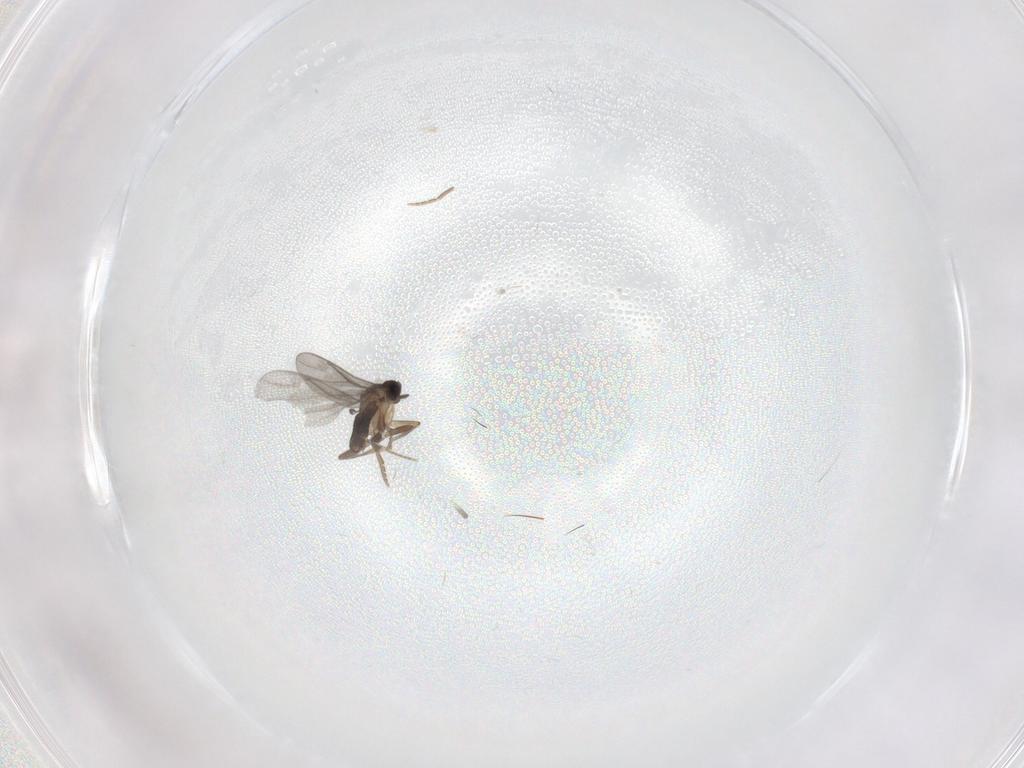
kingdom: Animalia
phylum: Arthropoda
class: Insecta
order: Diptera
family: Cecidomyiidae
